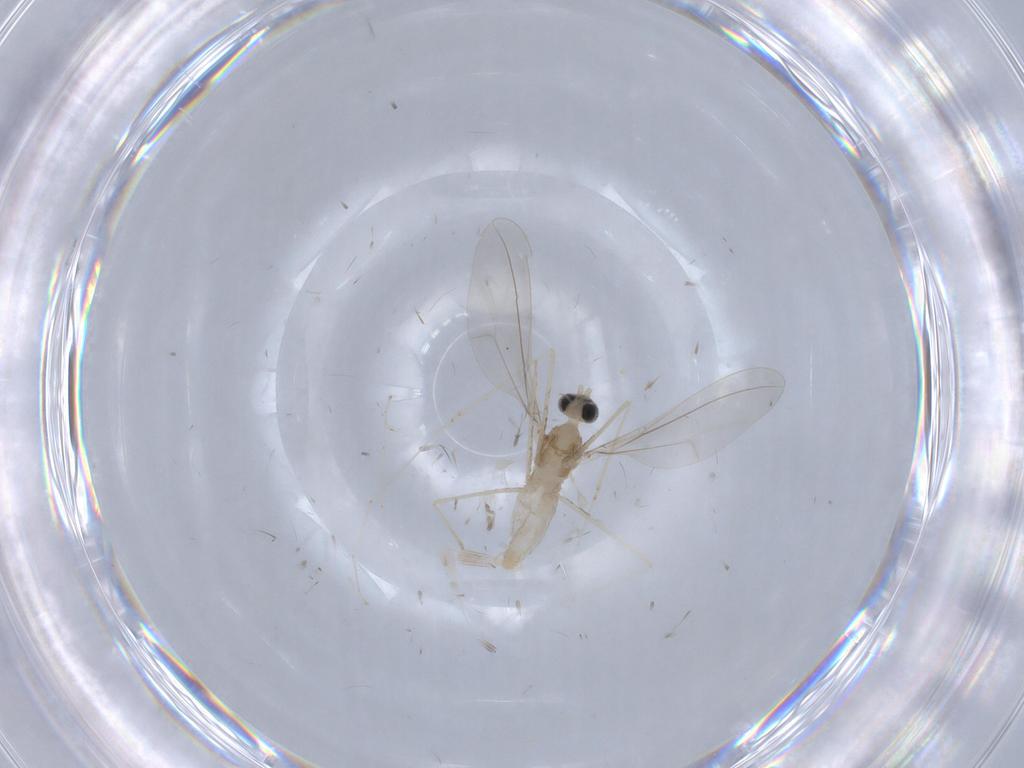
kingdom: Animalia
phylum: Arthropoda
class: Insecta
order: Diptera
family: Cecidomyiidae
